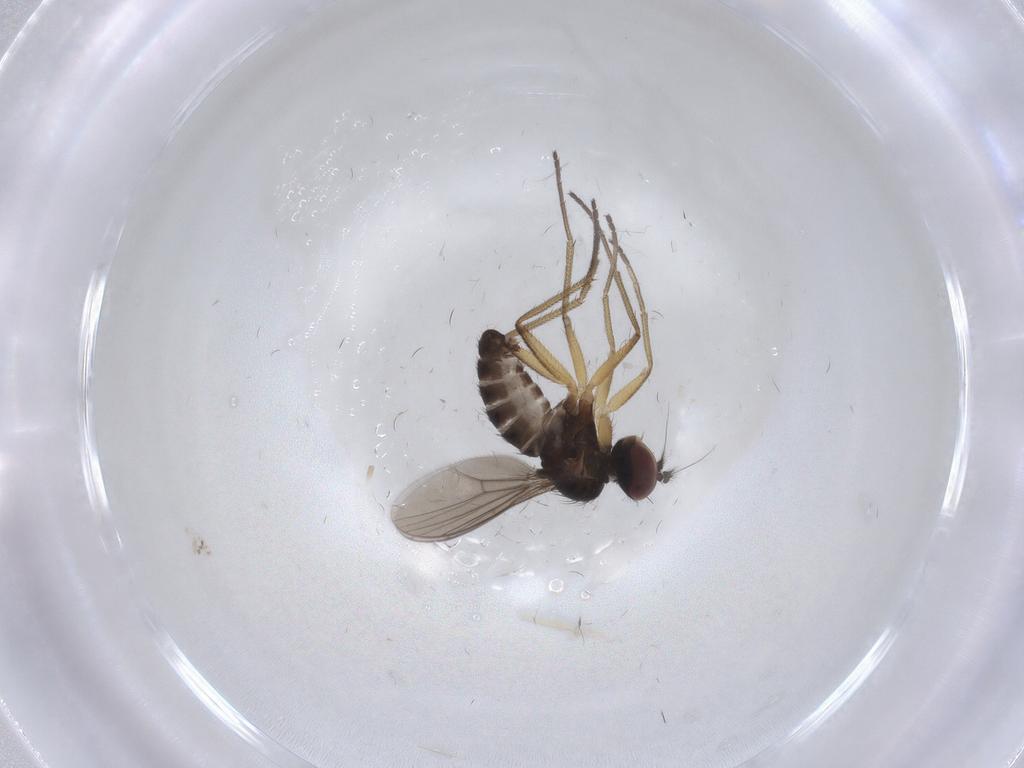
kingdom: Animalia
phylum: Arthropoda
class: Insecta
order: Diptera
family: Dolichopodidae
